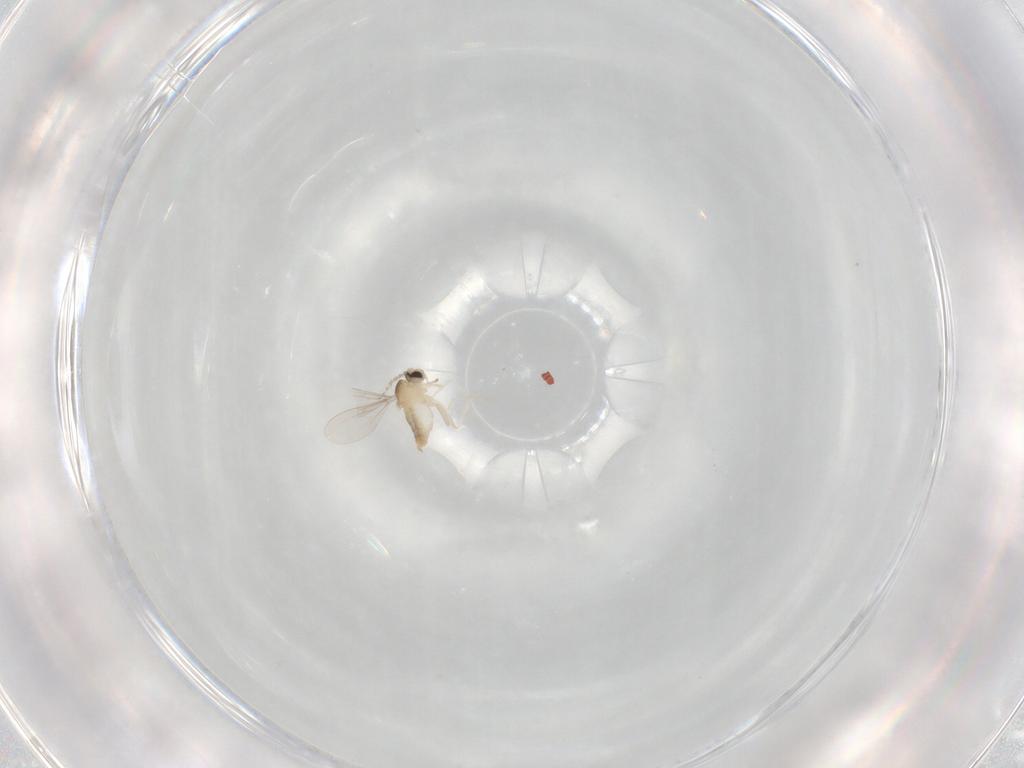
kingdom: Animalia
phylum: Arthropoda
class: Insecta
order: Diptera
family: Cecidomyiidae
